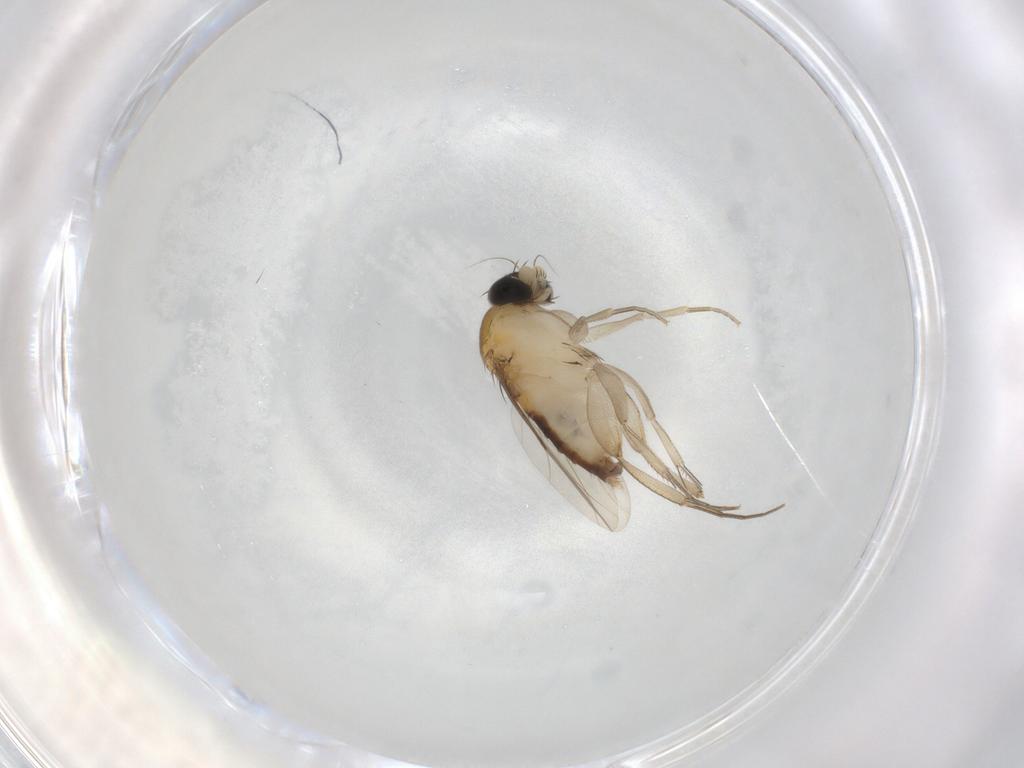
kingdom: Animalia
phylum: Arthropoda
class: Insecta
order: Diptera
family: Phoridae
